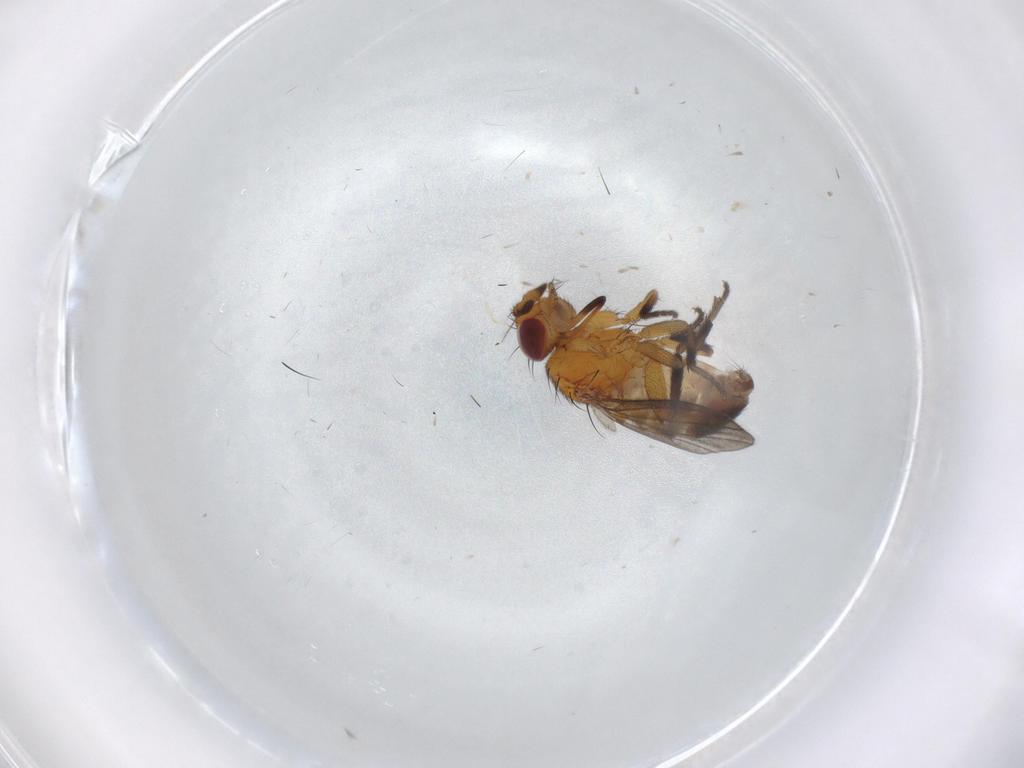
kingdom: Animalia
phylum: Arthropoda
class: Insecta
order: Diptera
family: Milichiidae
